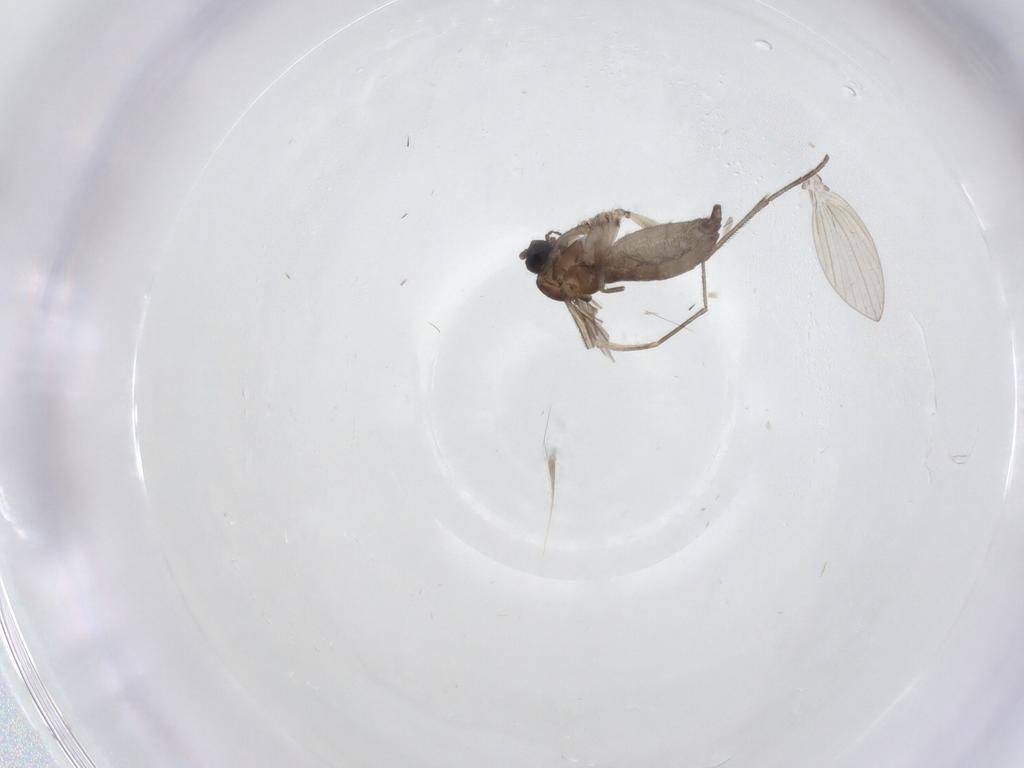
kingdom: Animalia
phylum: Arthropoda
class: Insecta
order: Diptera
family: Sciaridae
